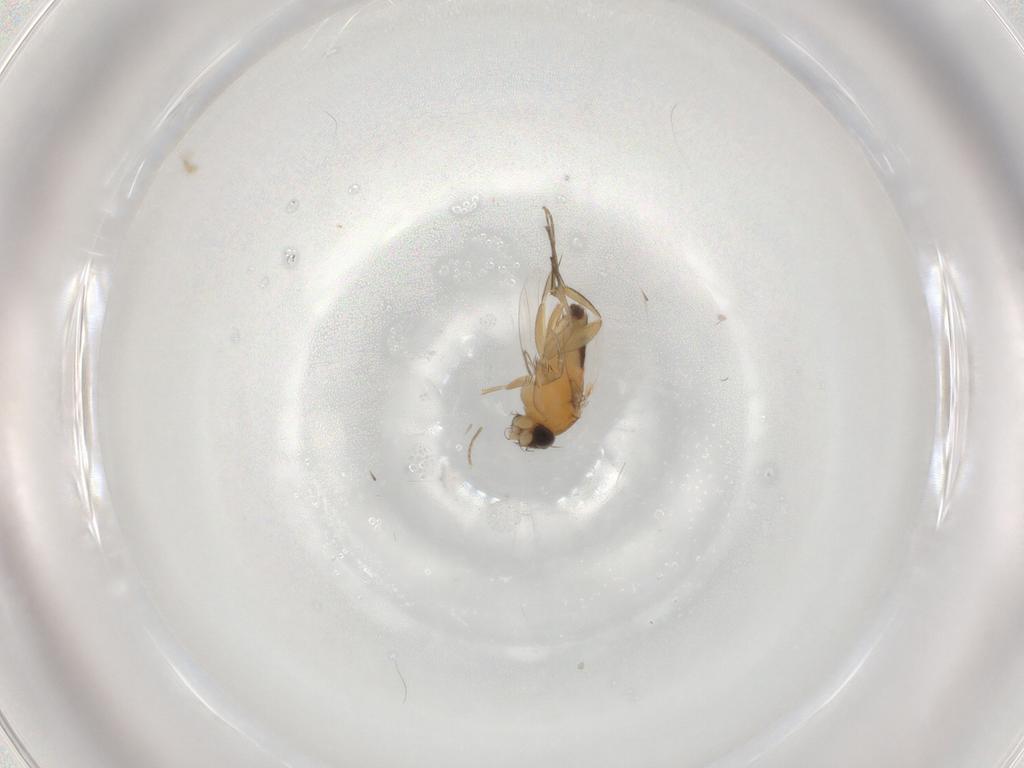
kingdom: Animalia
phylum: Arthropoda
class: Insecta
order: Diptera
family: Phoridae
